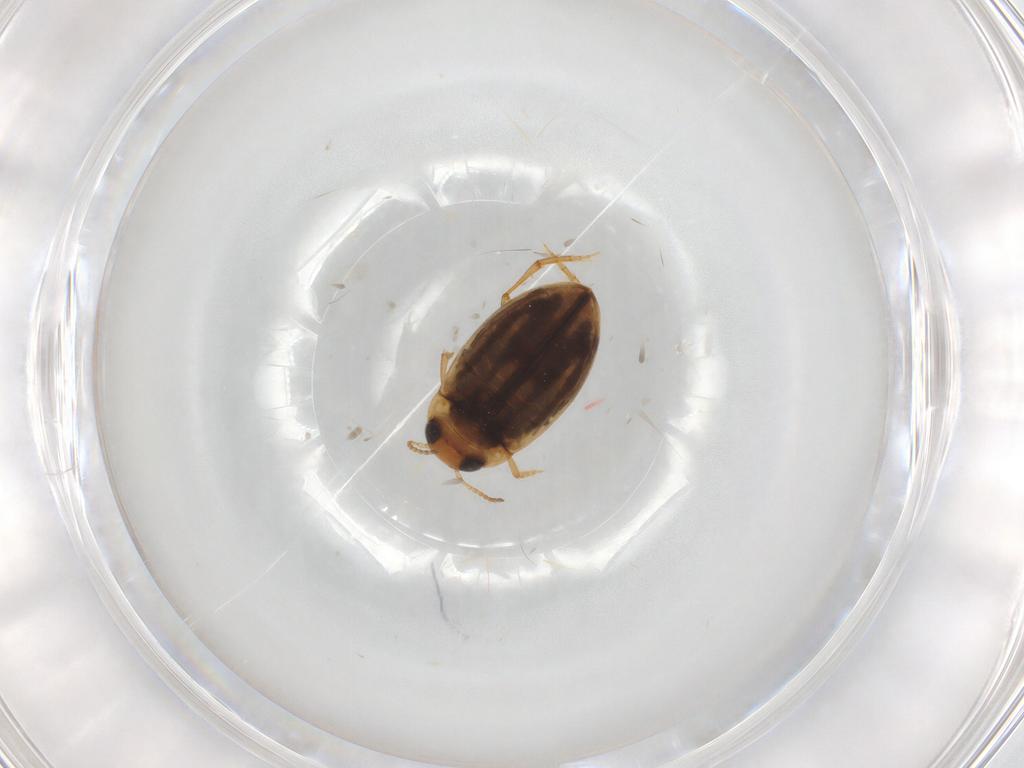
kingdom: Animalia
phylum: Arthropoda
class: Insecta
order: Coleoptera
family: Dytiscidae
